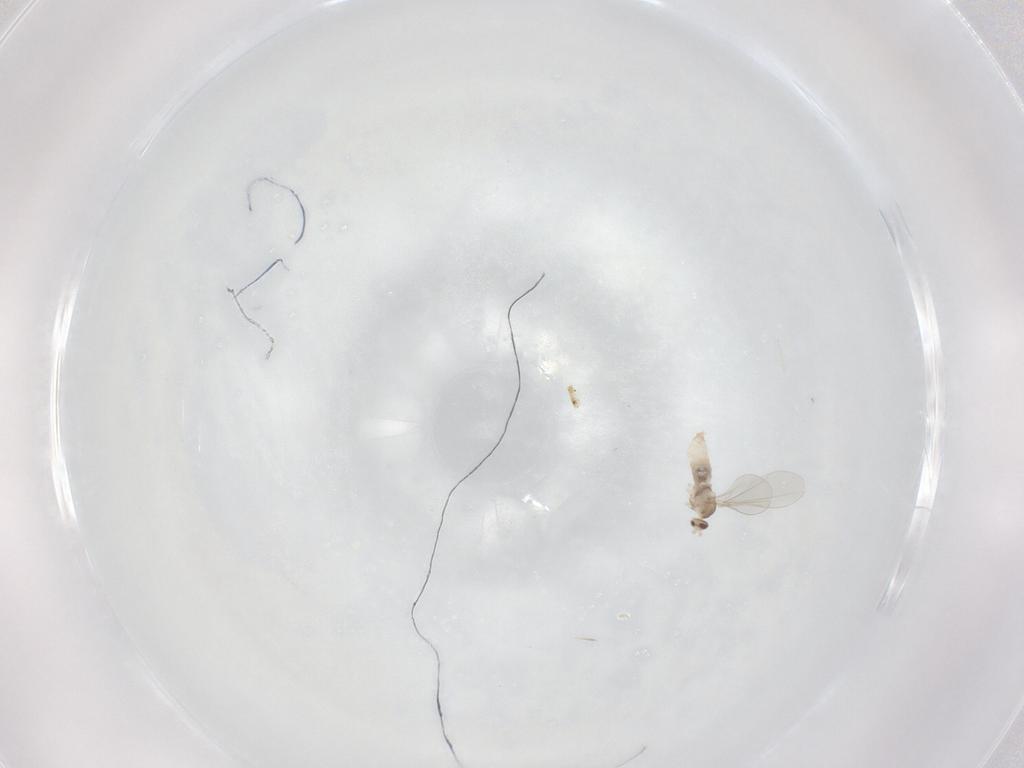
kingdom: Animalia
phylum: Arthropoda
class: Insecta
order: Diptera
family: Cecidomyiidae
